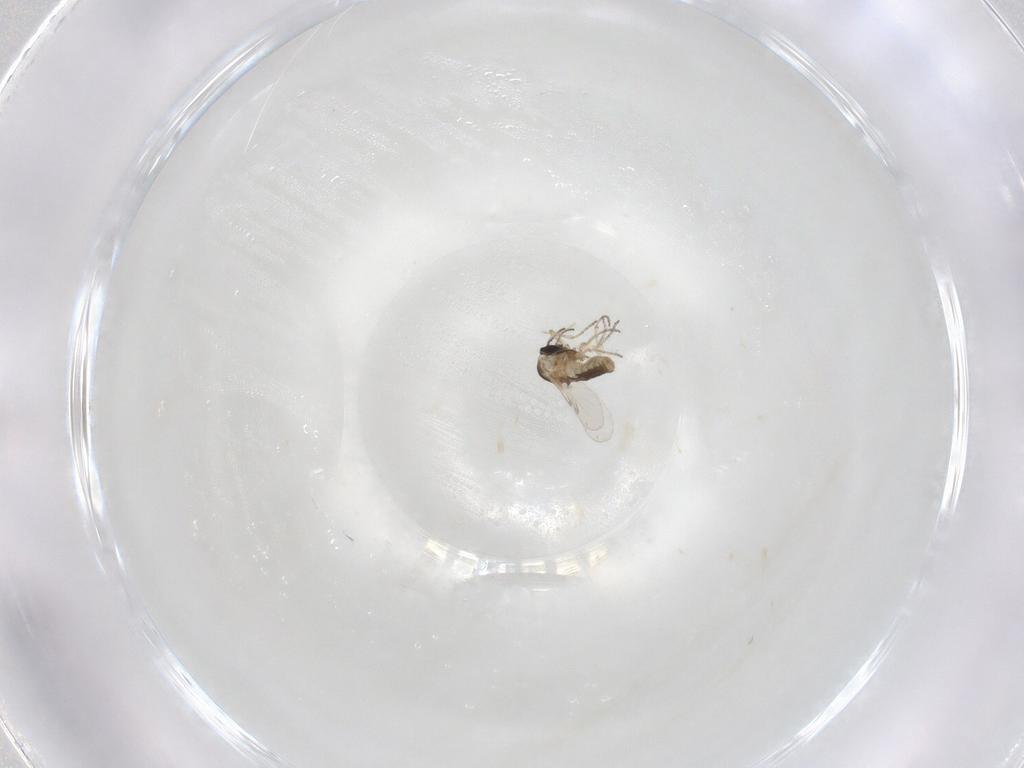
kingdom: Animalia
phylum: Arthropoda
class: Insecta
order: Diptera
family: Ceratopogonidae
